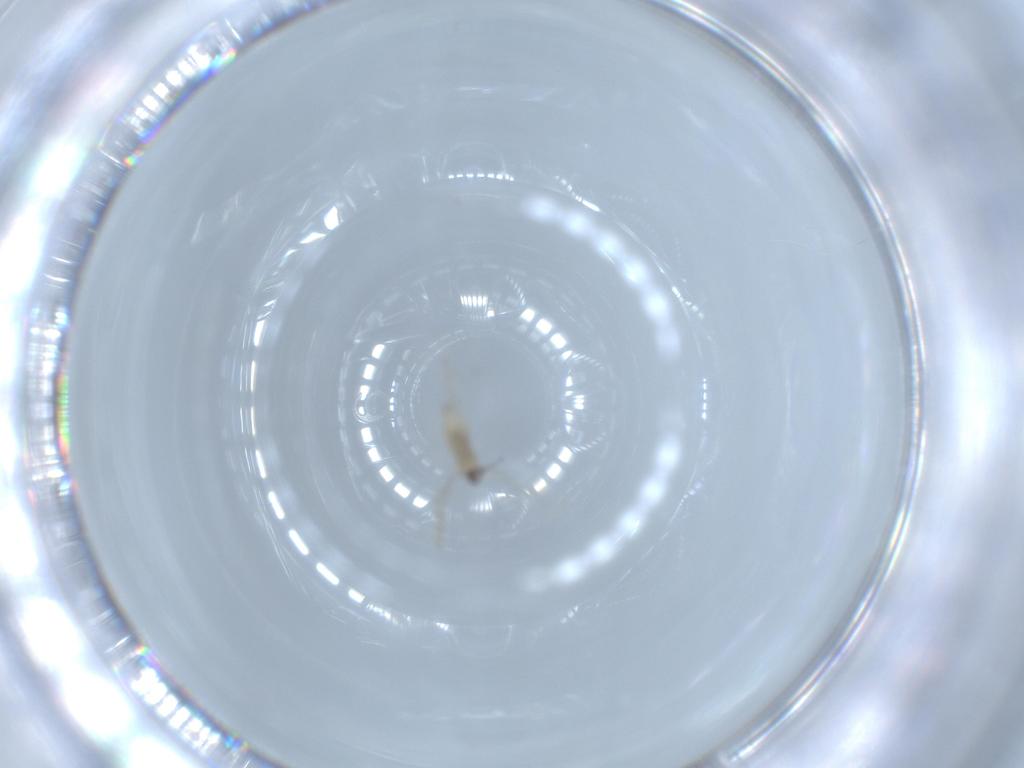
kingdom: Animalia
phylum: Arthropoda
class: Insecta
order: Diptera
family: Cecidomyiidae
